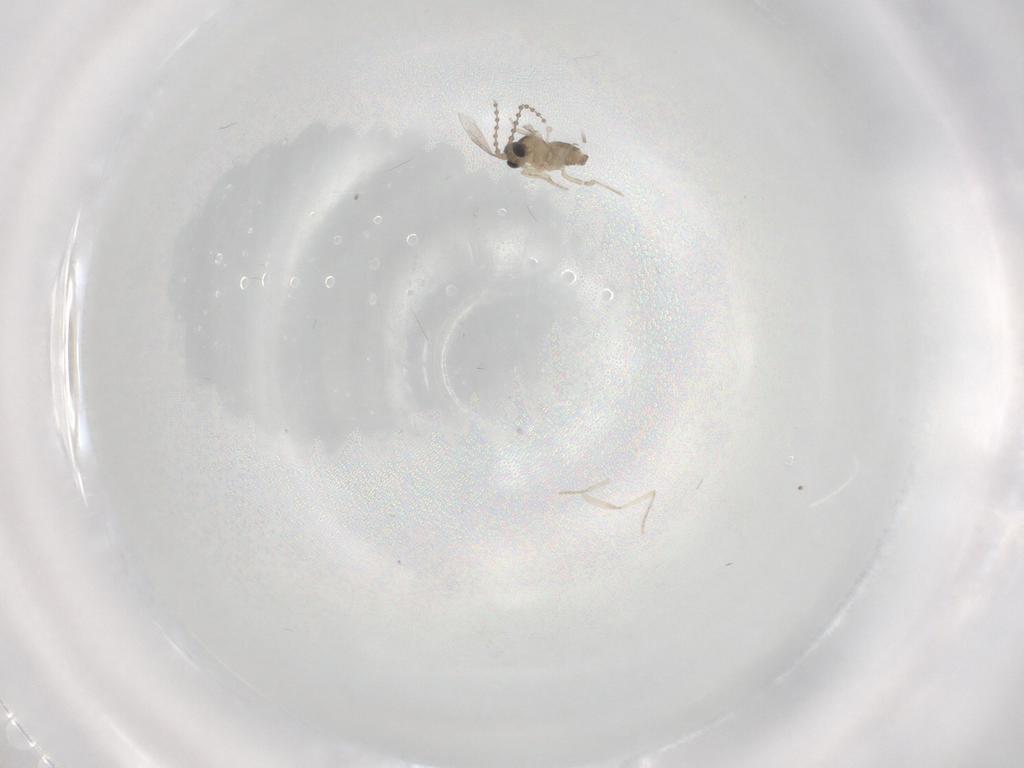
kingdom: Animalia
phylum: Arthropoda
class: Insecta
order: Diptera
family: Cecidomyiidae
